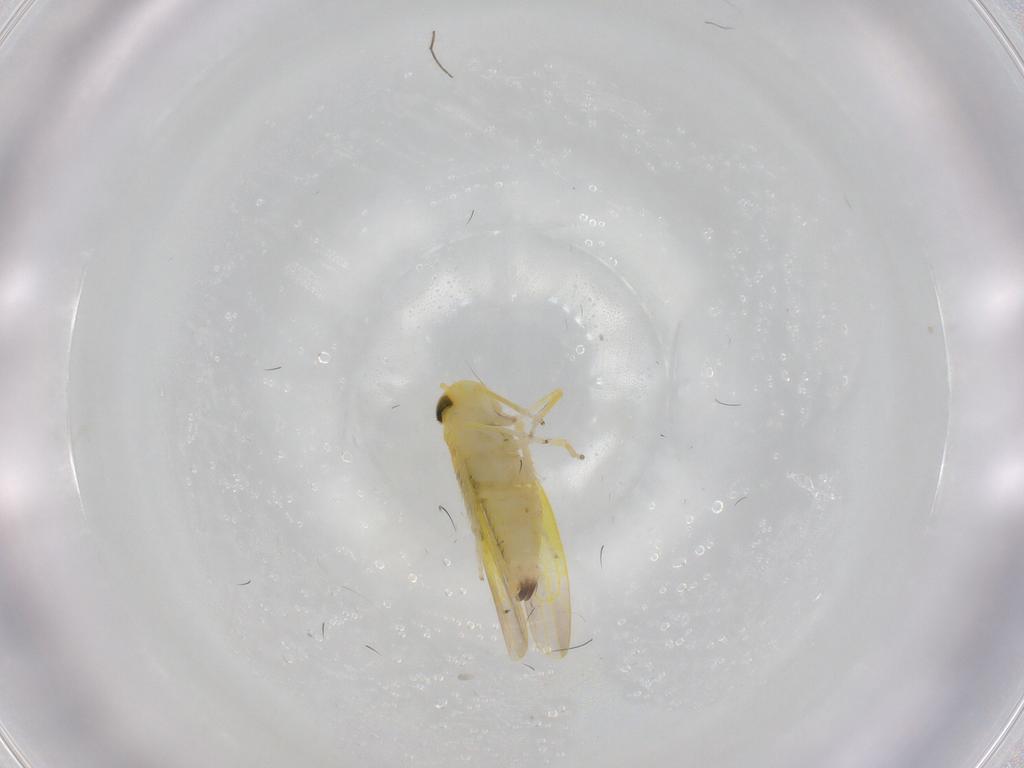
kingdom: Animalia
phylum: Arthropoda
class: Insecta
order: Hemiptera
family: Cicadellidae
